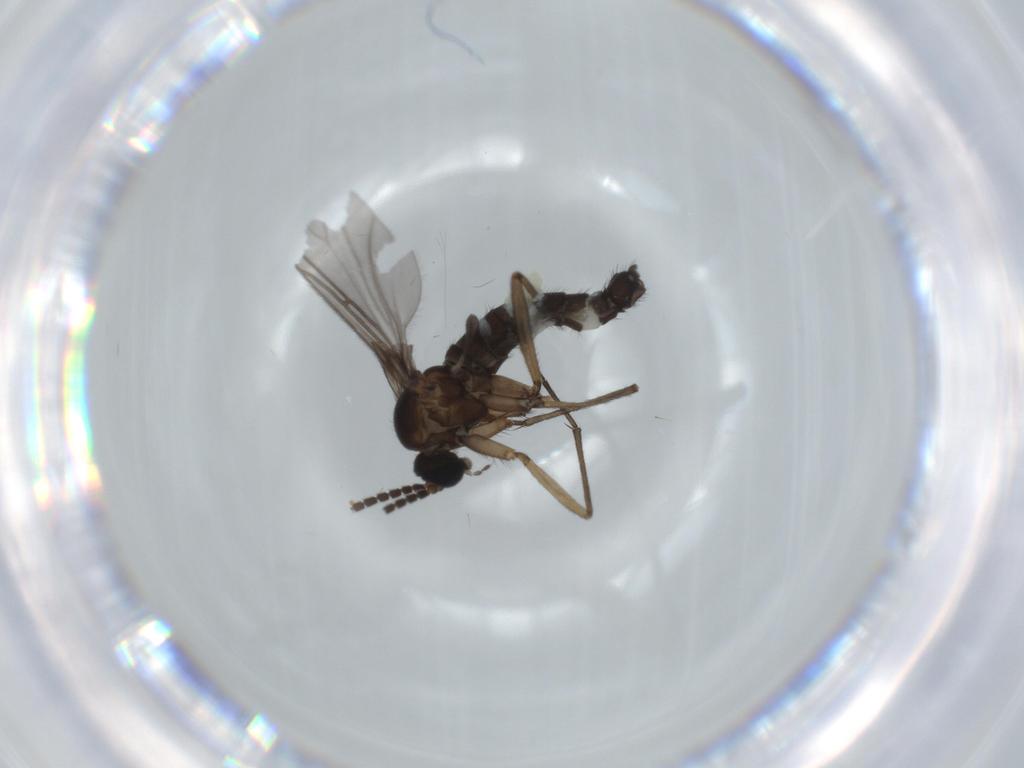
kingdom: Animalia
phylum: Arthropoda
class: Insecta
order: Diptera
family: Sciaridae
